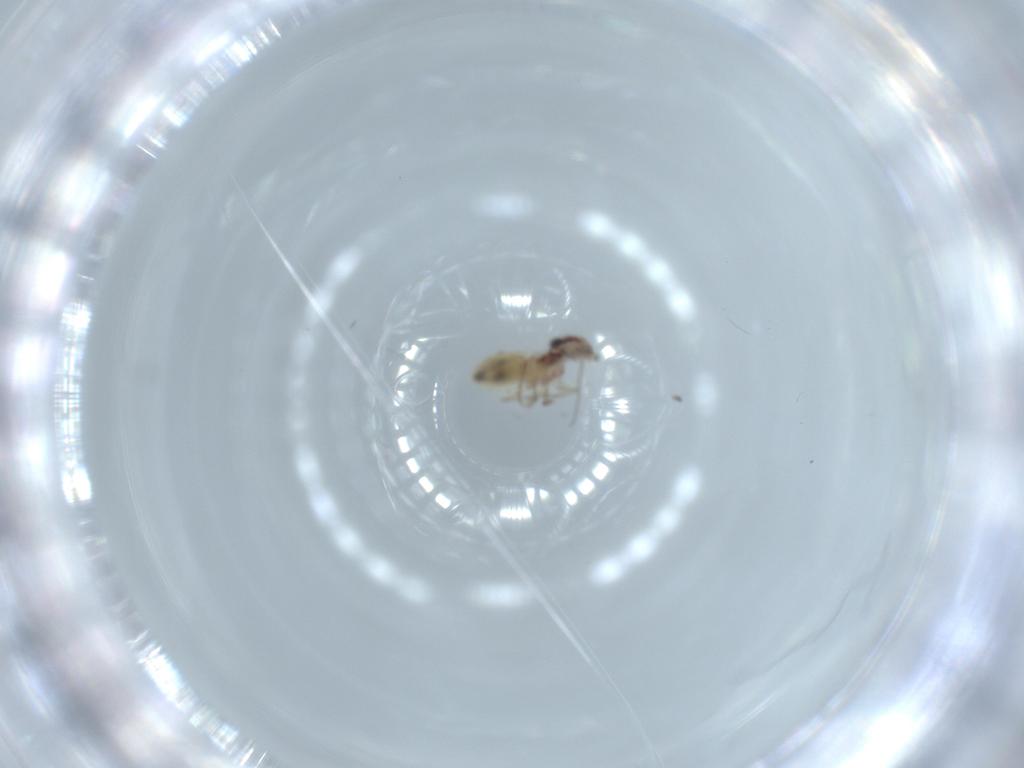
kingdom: Animalia
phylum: Arthropoda
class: Insecta
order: Psocodea
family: Lepidopsocidae
